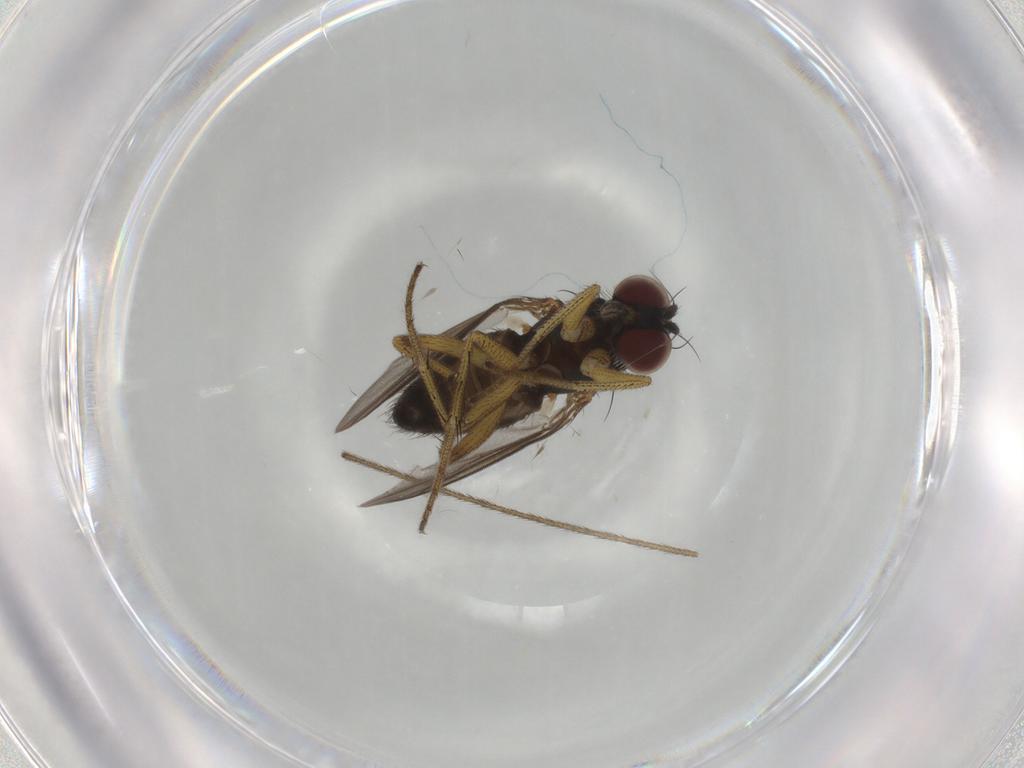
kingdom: Animalia
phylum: Arthropoda
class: Insecta
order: Diptera
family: Dolichopodidae
